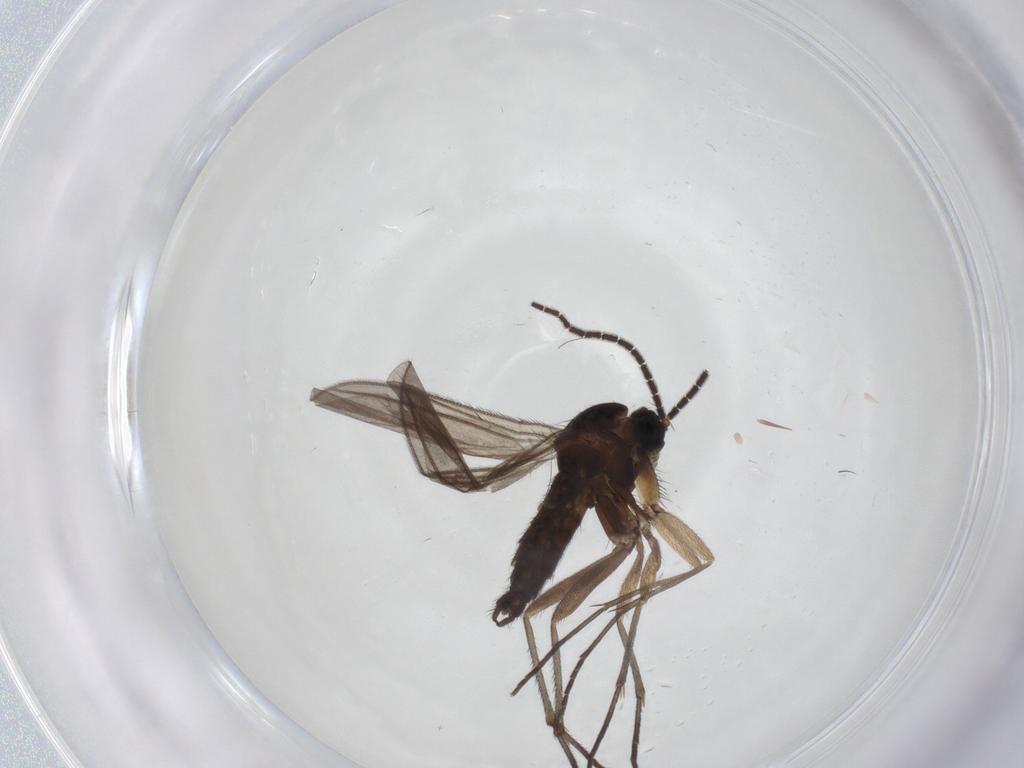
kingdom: Animalia
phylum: Arthropoda
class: Insecta
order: Diptera
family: Sciaridae
